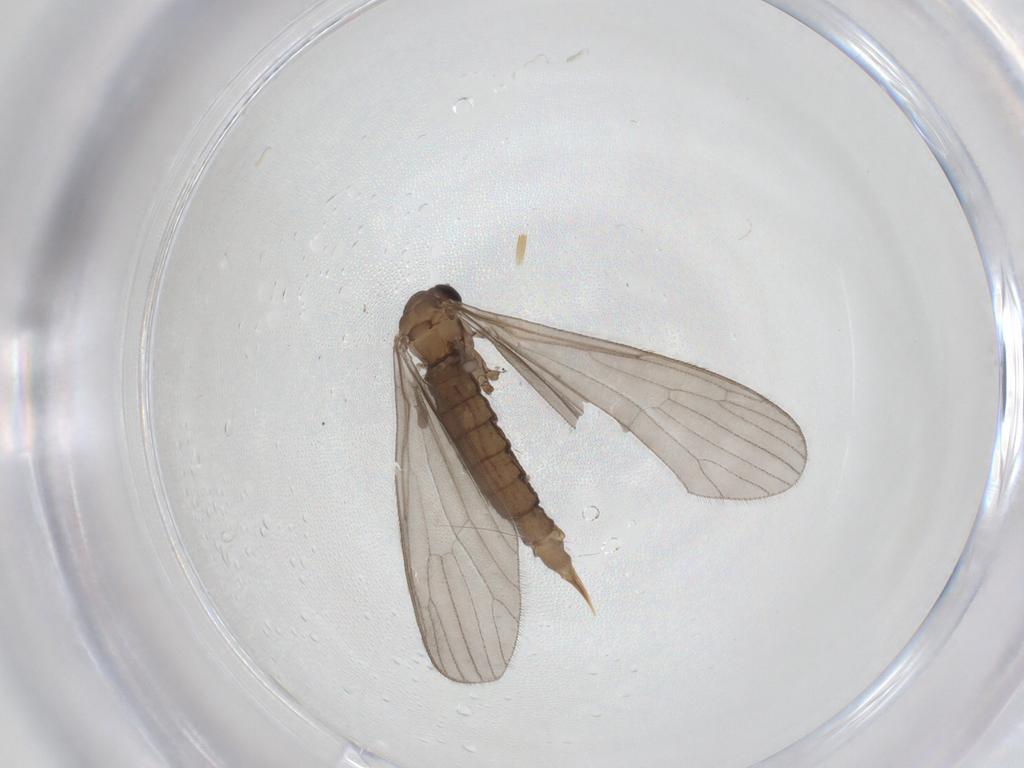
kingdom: Animalia
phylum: Arthropoda
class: Insecta
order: Diptera
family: Limoniidae
